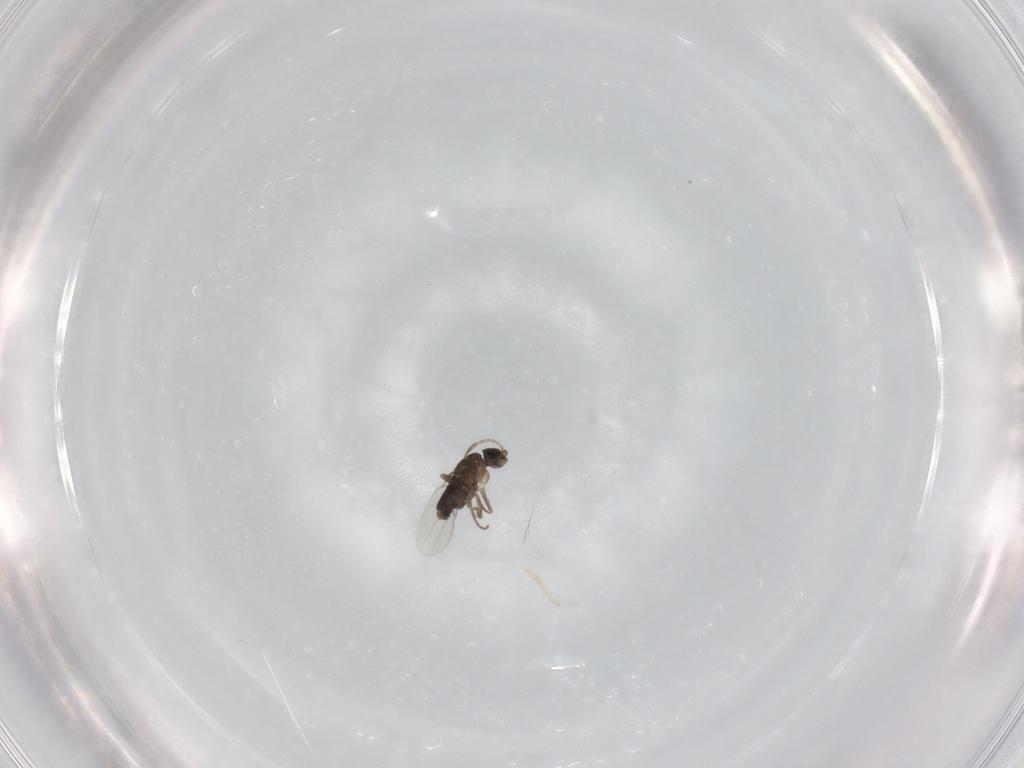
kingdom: Animalia
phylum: Arthropoda
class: Insecta
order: Diptera
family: Phoridae
